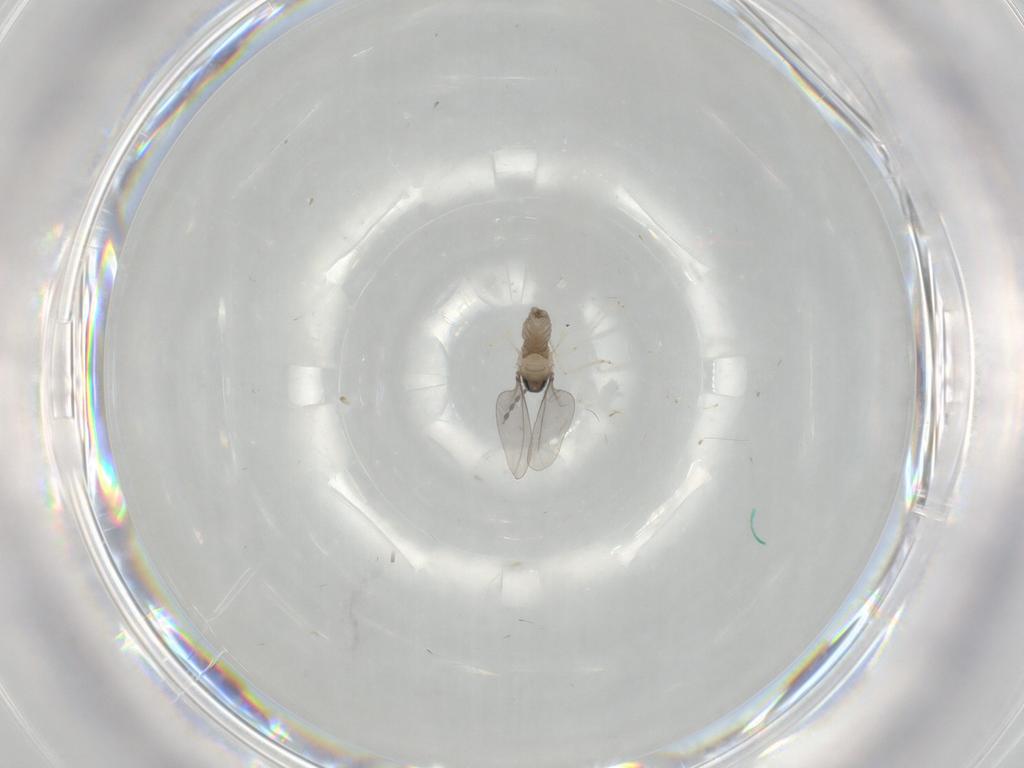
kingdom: Animalia
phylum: Arthropoda
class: Insecta
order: Diptera
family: Cecidomyiidae
